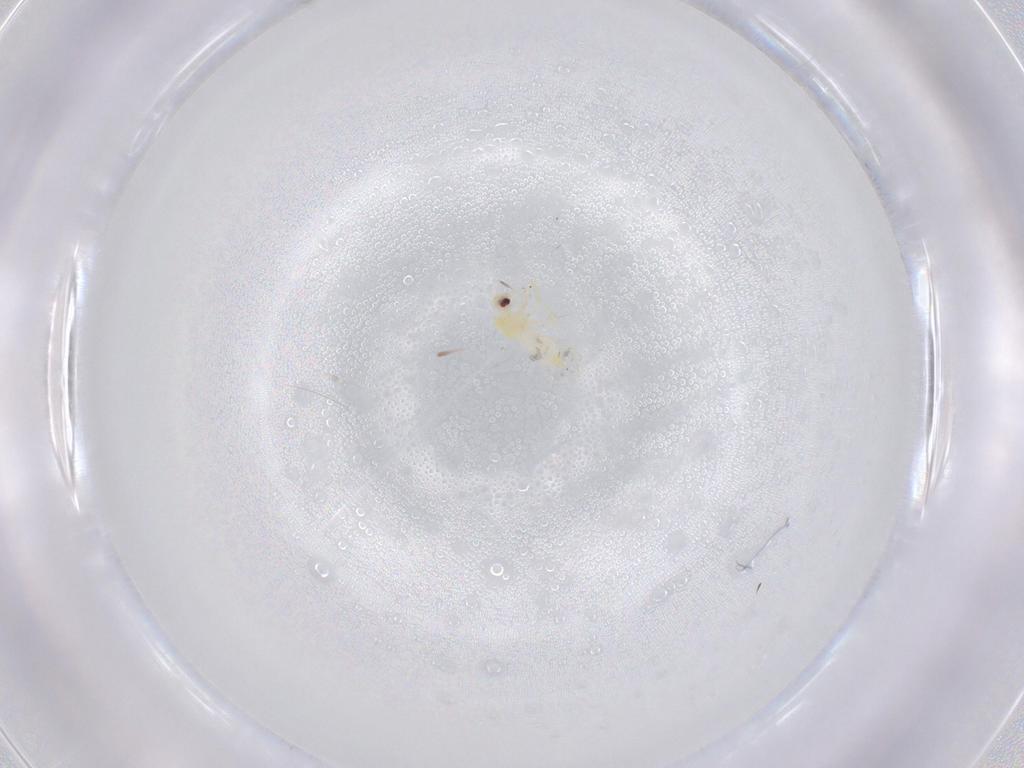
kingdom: Animalia
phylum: Arthropoda
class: Insecta
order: Hemiptera
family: Aleyrodidae
